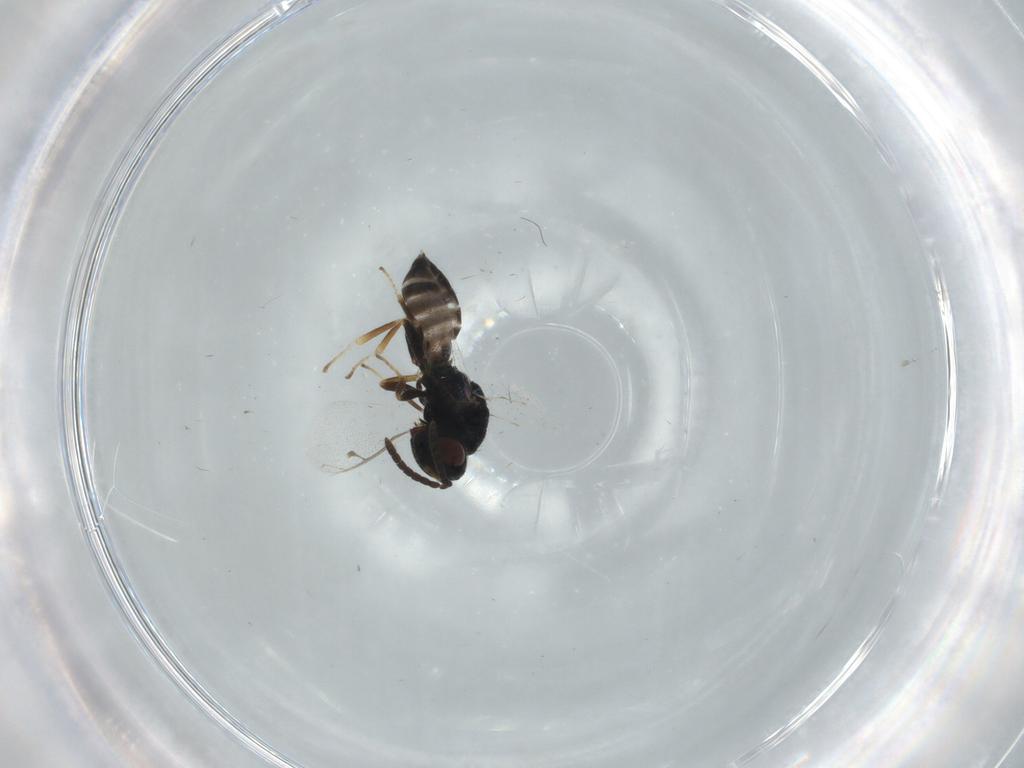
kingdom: Animalia
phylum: Arthropoda
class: Insecta
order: Hymenoptera
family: Pteromalidae
